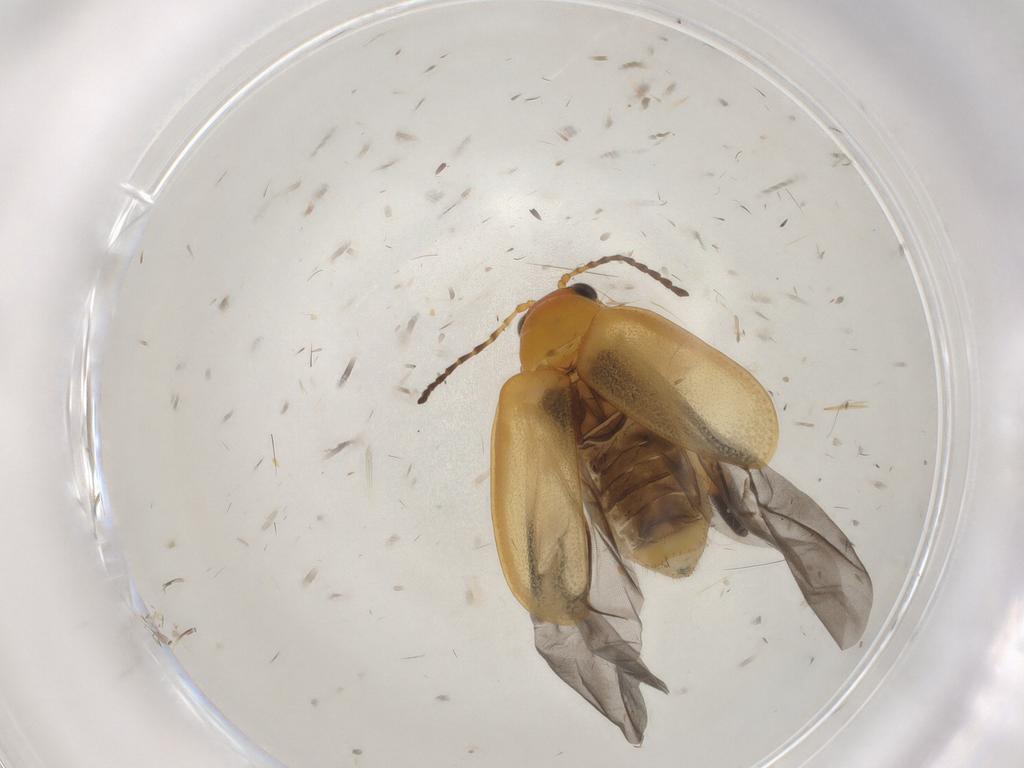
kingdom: Animalia
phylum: Arthropoda
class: Insecta
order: Coleoptera
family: Chrysomelidae
